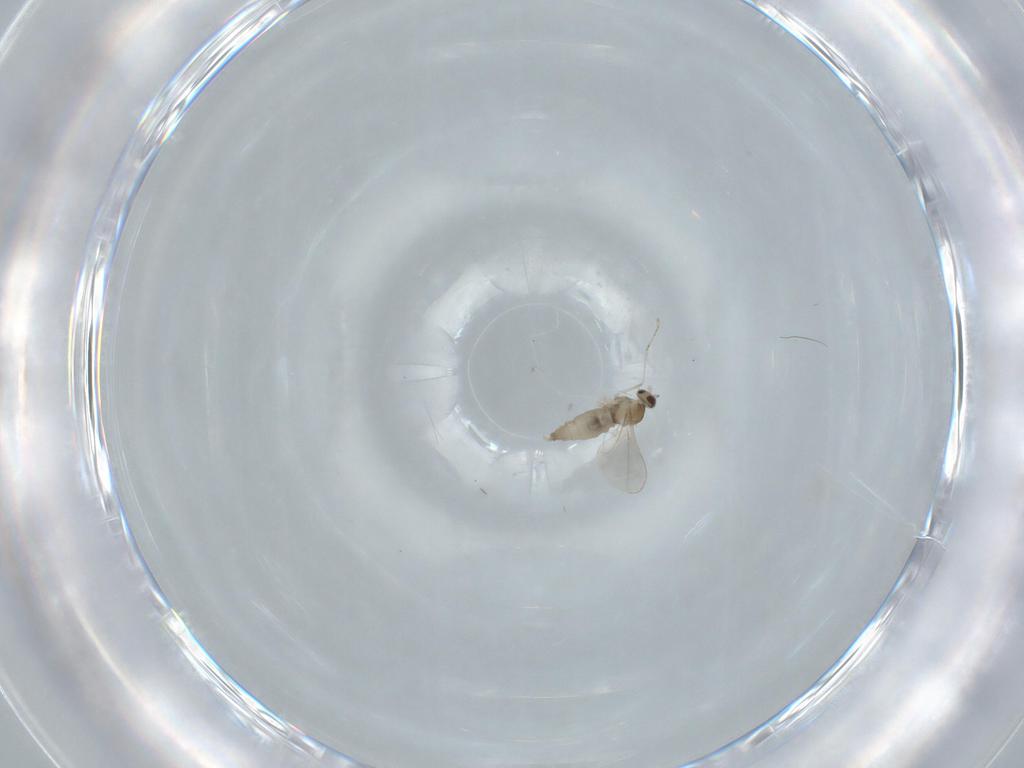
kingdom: Animalia
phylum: Arthropoda
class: Insecta
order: Diptera
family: Cecidomyiidae
